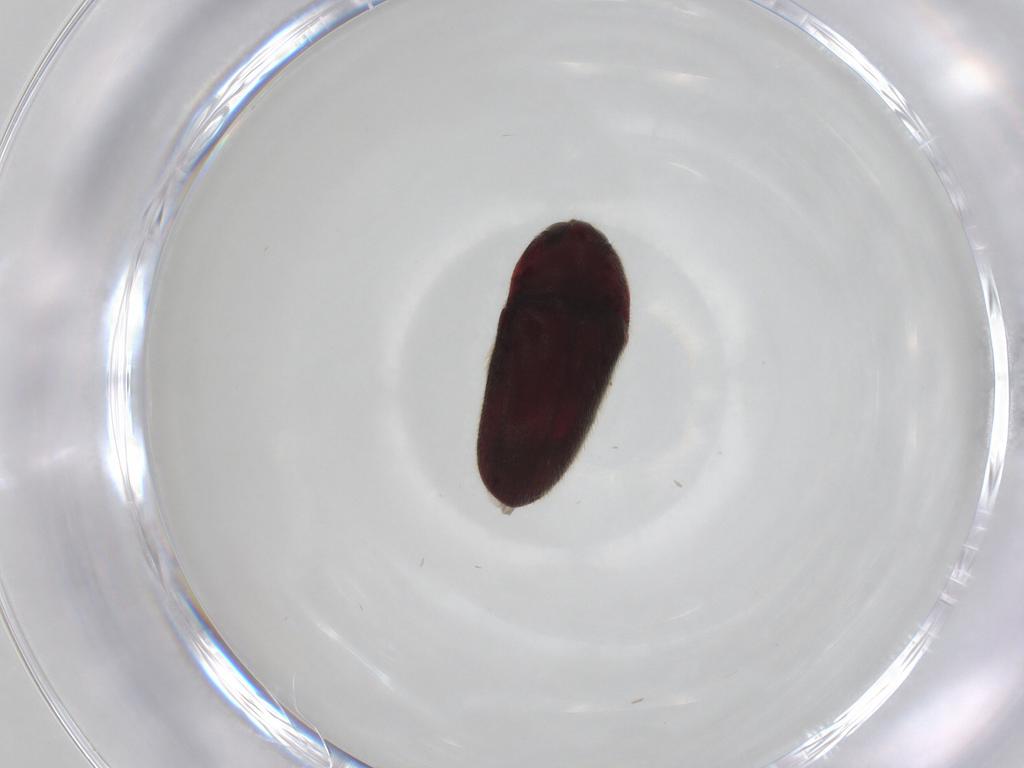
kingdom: Animalia
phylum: Arthropoda
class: Insecta
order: Coleoptera
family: Throscidae
